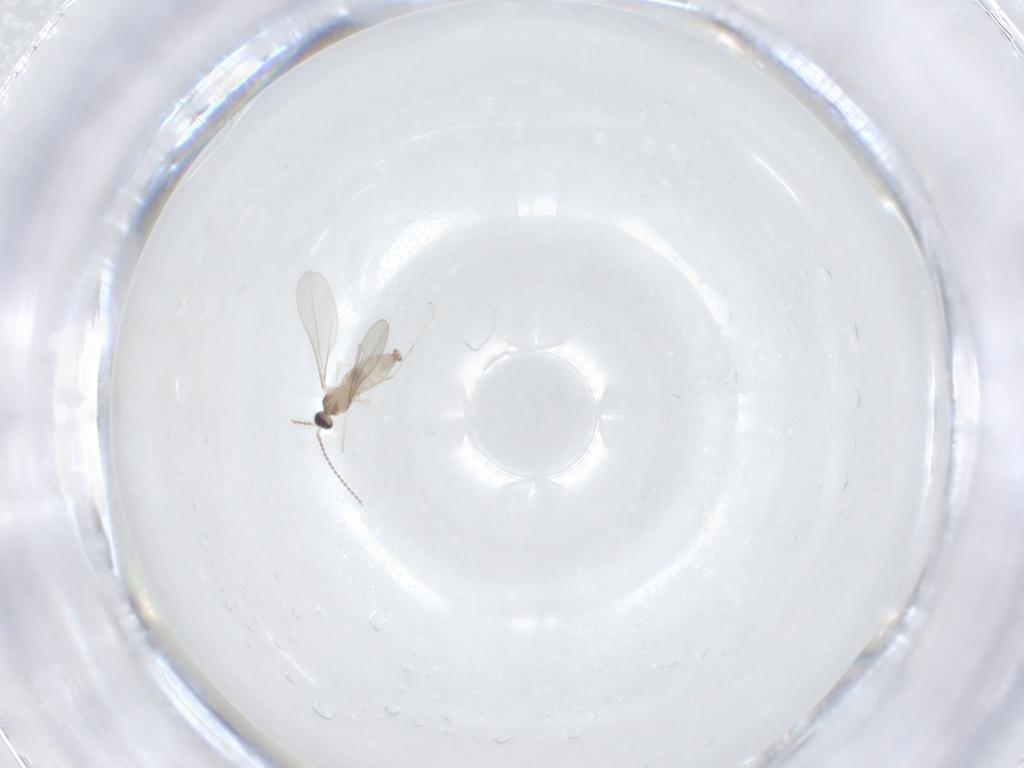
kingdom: Animalia
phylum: Arthropoda
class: Insecta
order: Diptera
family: Cecidomyiidae
